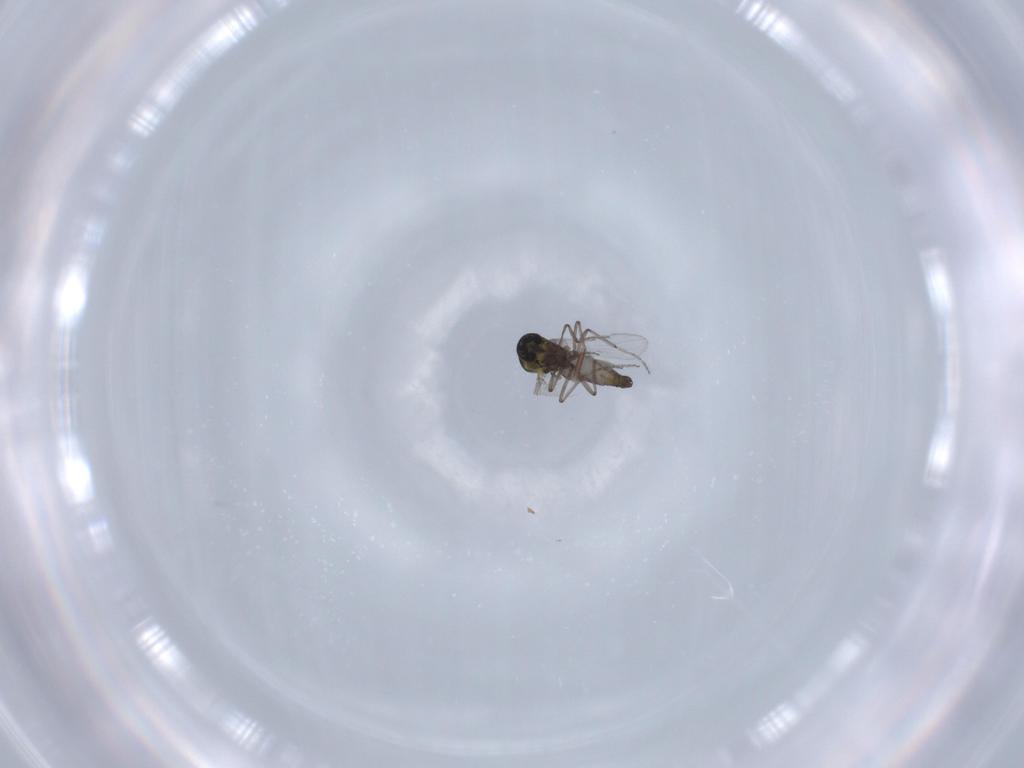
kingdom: Animalia
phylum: Arthropoda
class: Insecta
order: Diptera
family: Ceratopogonidae
